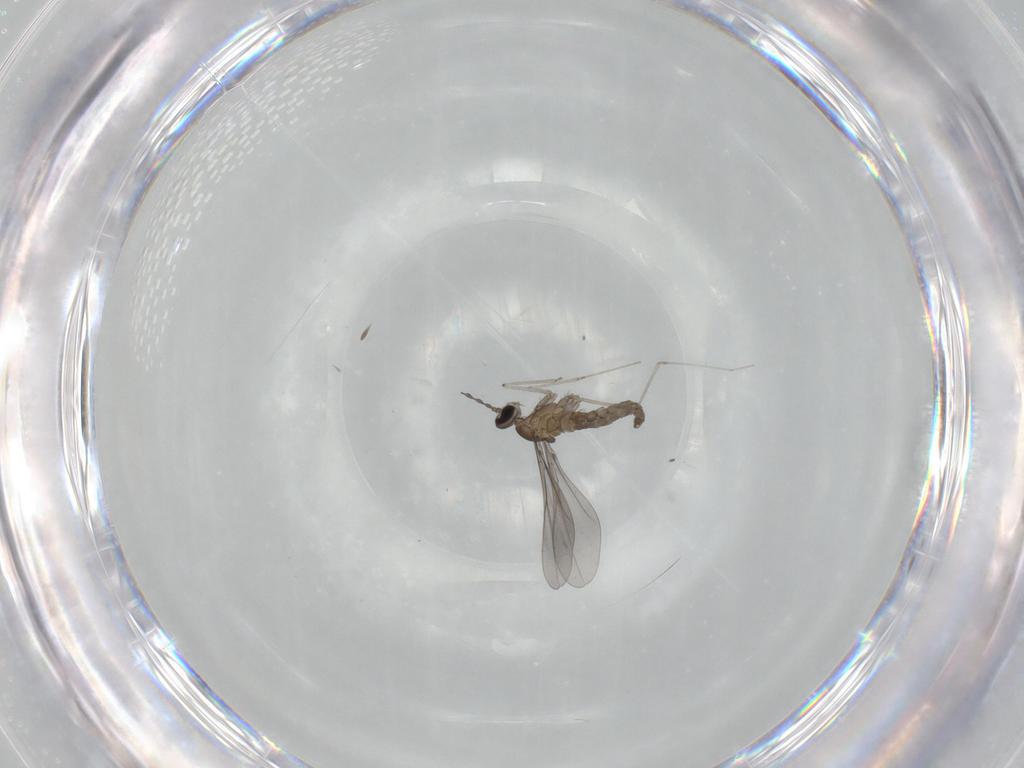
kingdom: Animalia
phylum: Arthropoda
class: Insecta
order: Diptera
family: Cecidomyiidae
